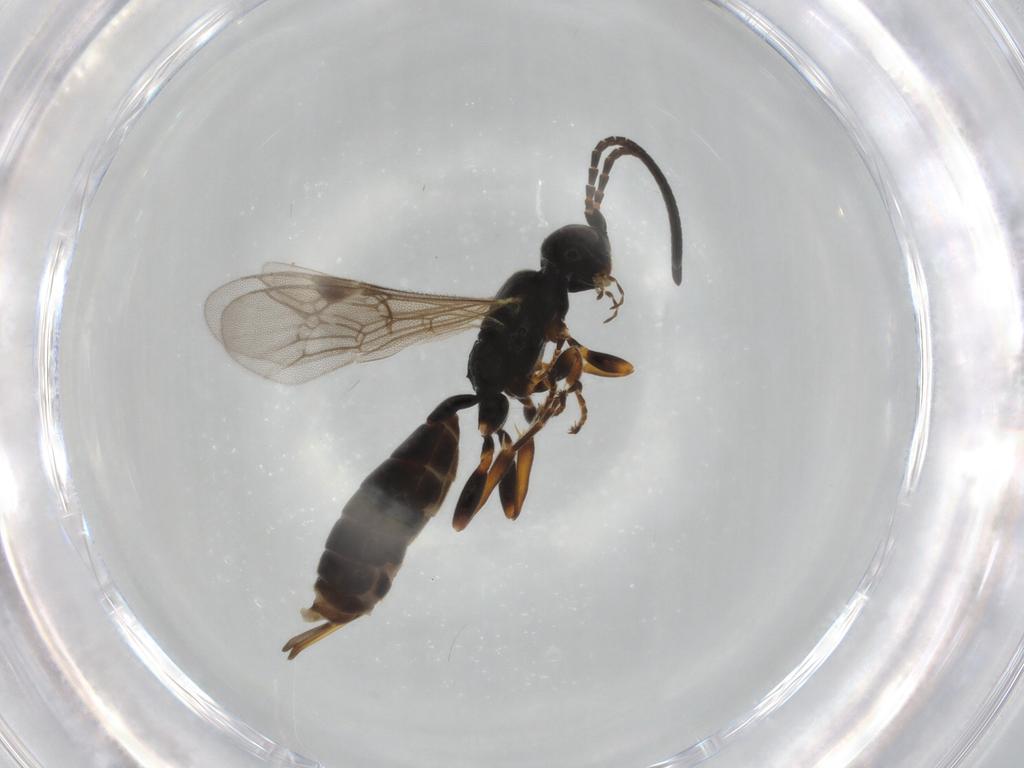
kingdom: Animalia
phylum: Arthropoda
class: Insecta
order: Hymenoptera
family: Ichneumonidae
